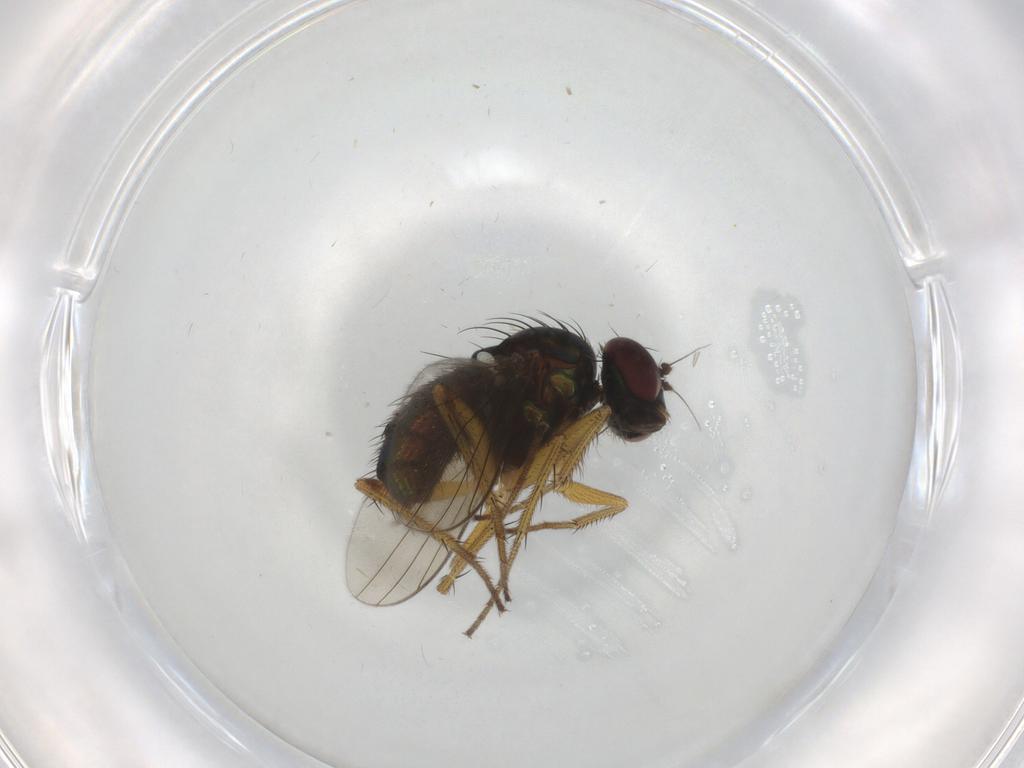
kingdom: Animalia
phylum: Arthropoda
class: Insecta
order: Diptera
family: Dolichopodidae
